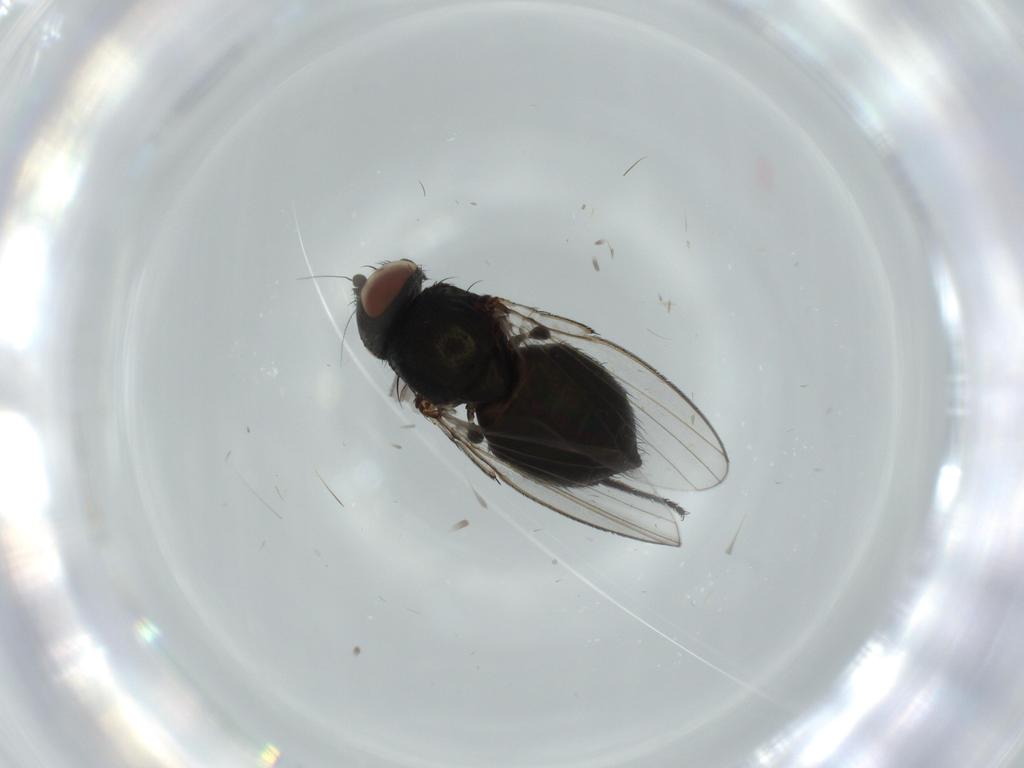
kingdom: Animalia
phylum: Arthropoda
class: Insecta
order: Diptera
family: Milichiidae
